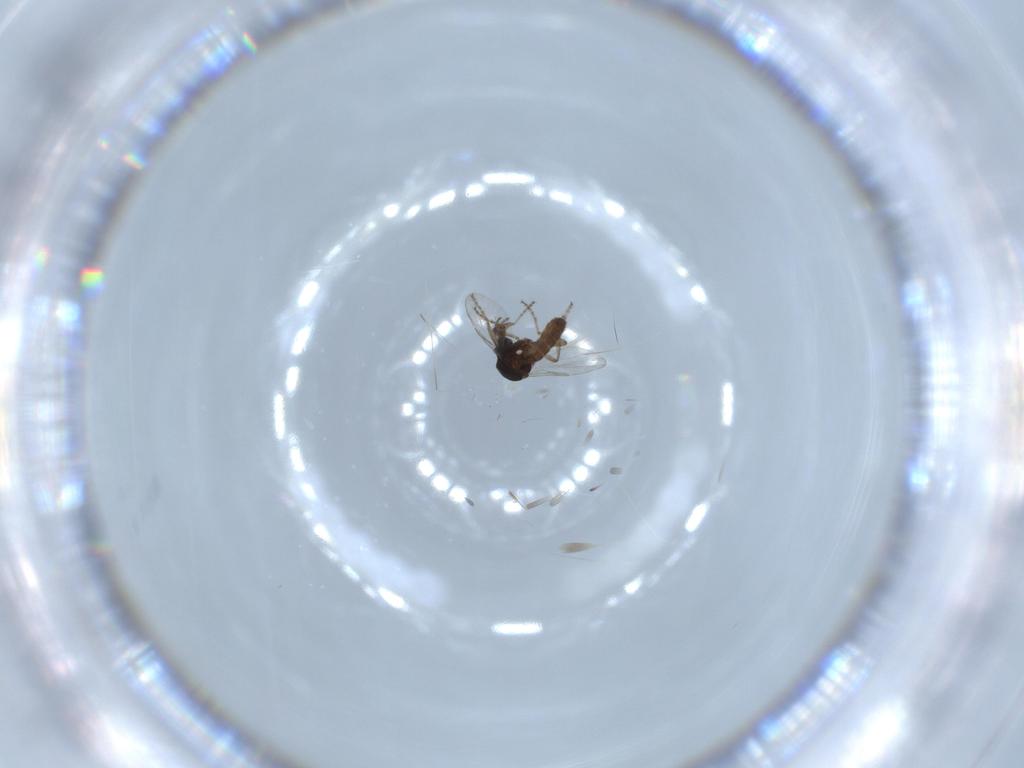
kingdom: Animalia
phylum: Arthropoda
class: Insecta
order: Diptera
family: Ceratopogonidae
